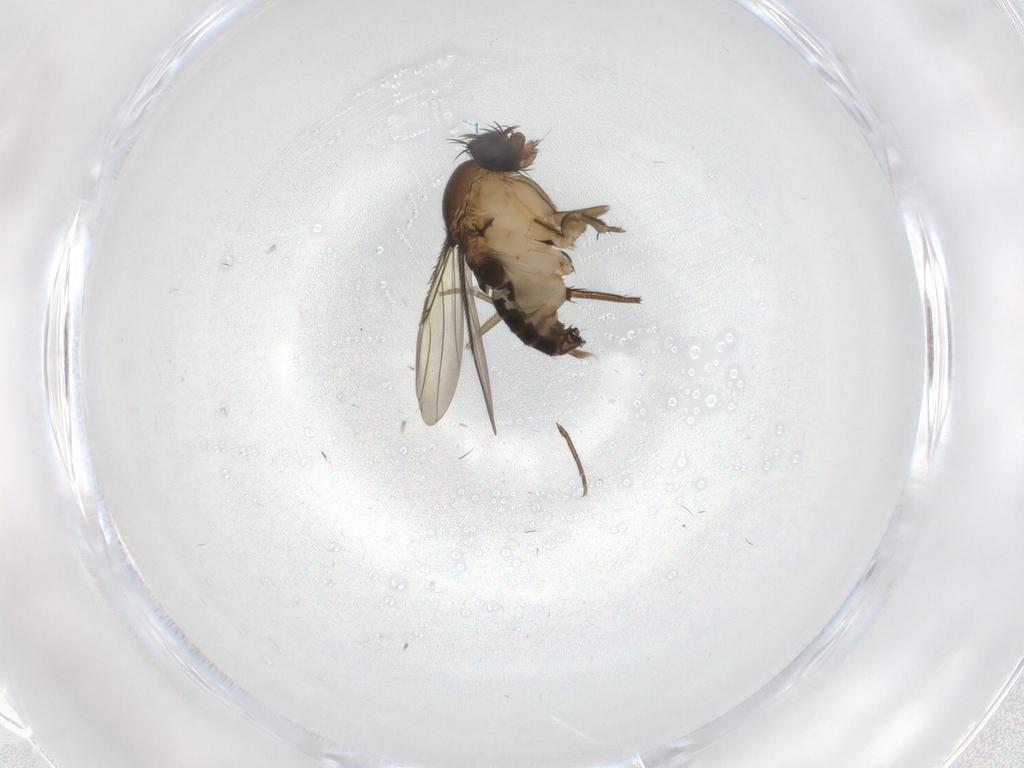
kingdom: Animalia
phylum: Arthropoda
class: Insecta
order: Diptera
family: Phoridae
